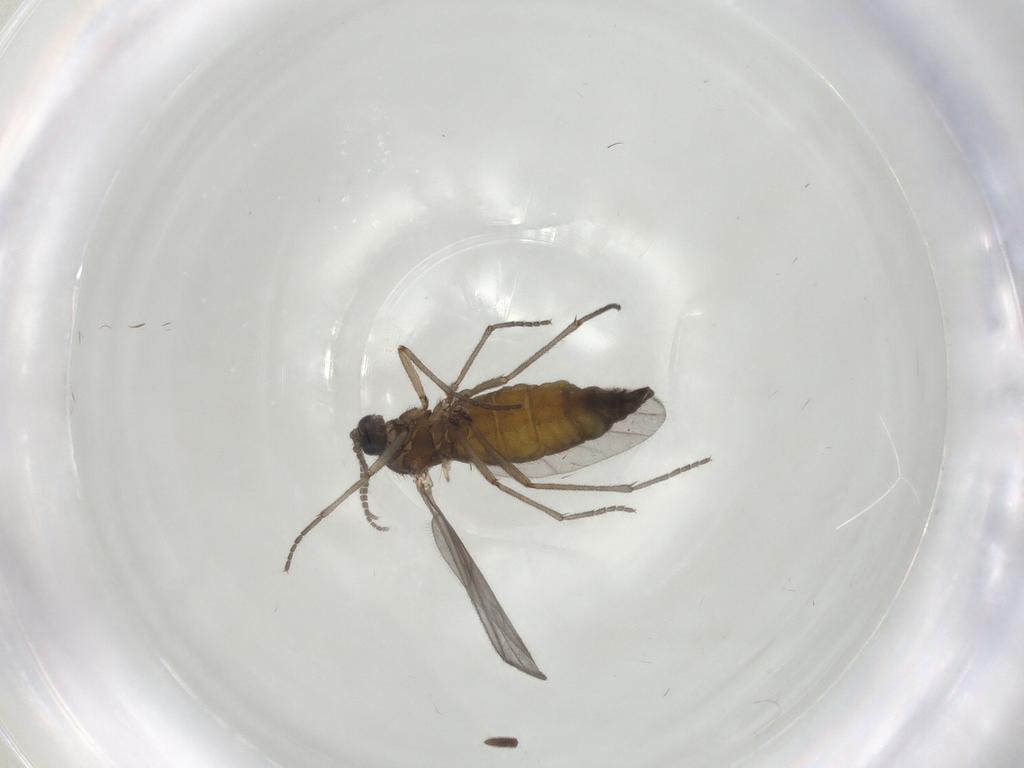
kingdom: Animalia
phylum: Arthropoda
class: Insecta
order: Diptera
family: Sciaridae
